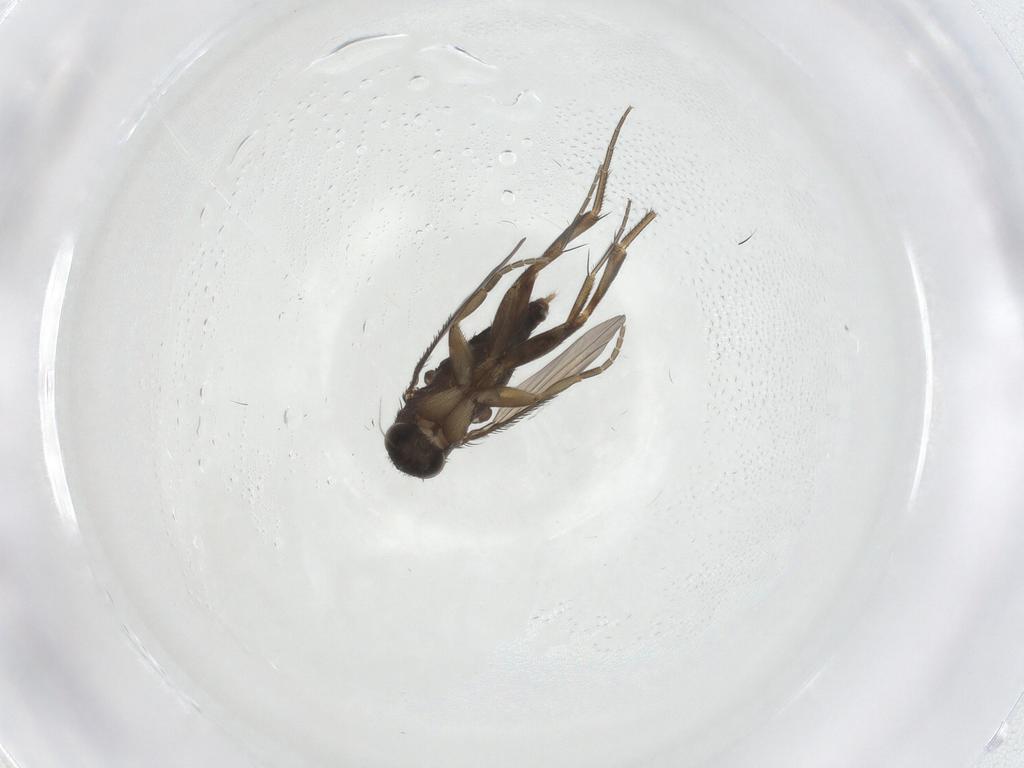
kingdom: Animalia
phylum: Arthropoda
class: Insecta
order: Diptera
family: Phoridae
